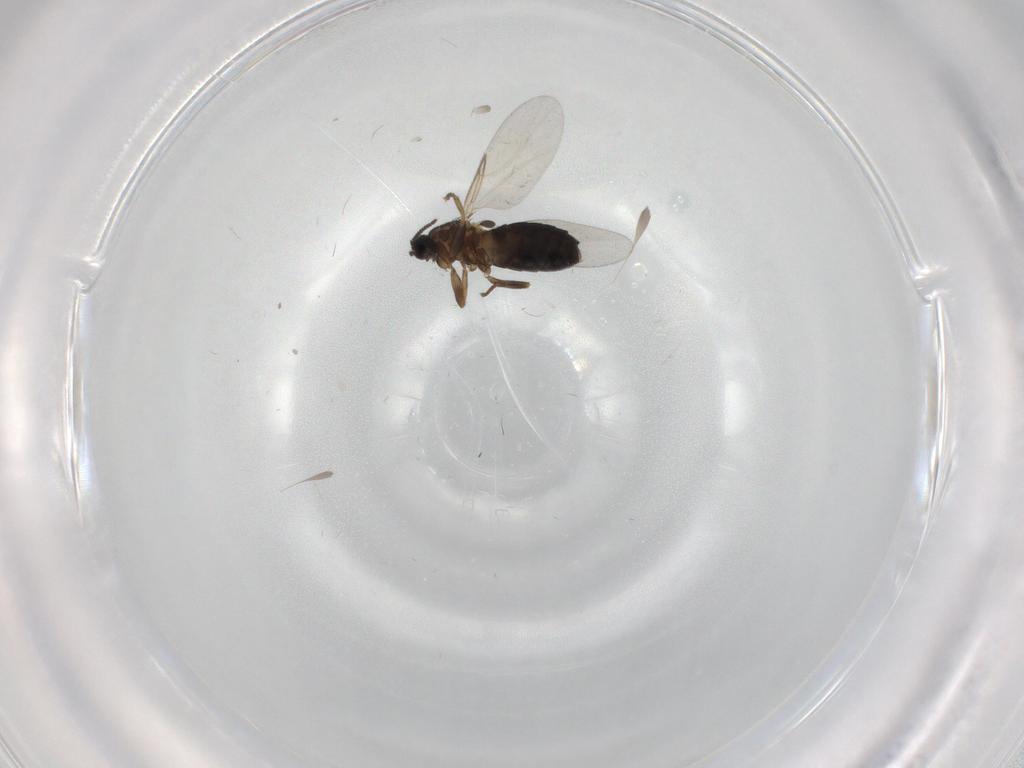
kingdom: Animalia
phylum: Arthropoda
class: Insecta
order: Diptera
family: Scatopsidae
